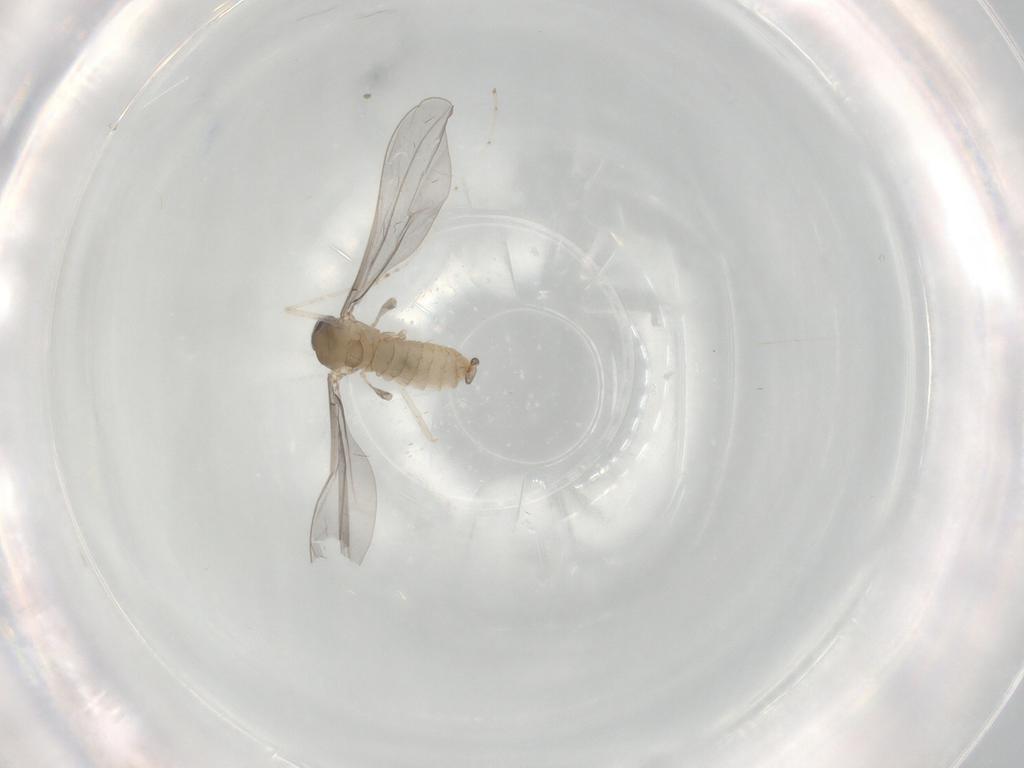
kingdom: Animalia
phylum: Arthropoda
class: Insecta
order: Diptera
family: Cecidomyiidae
